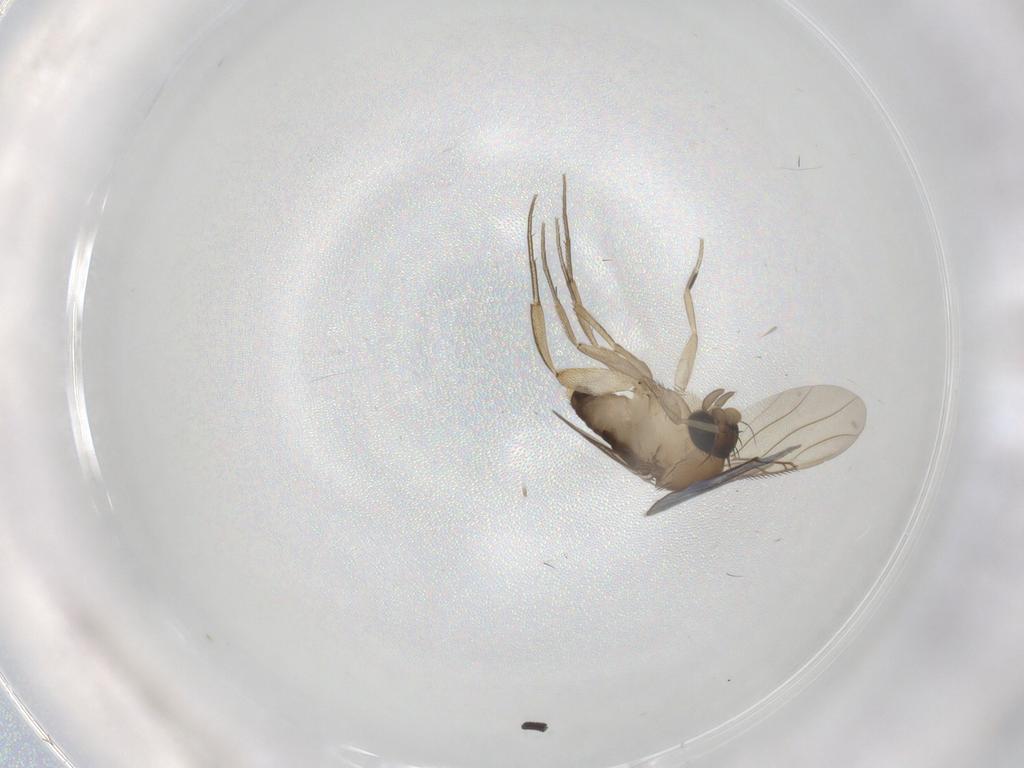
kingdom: Animalia
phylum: Arthropoda
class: Insecta
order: Diptera
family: Phoridae
